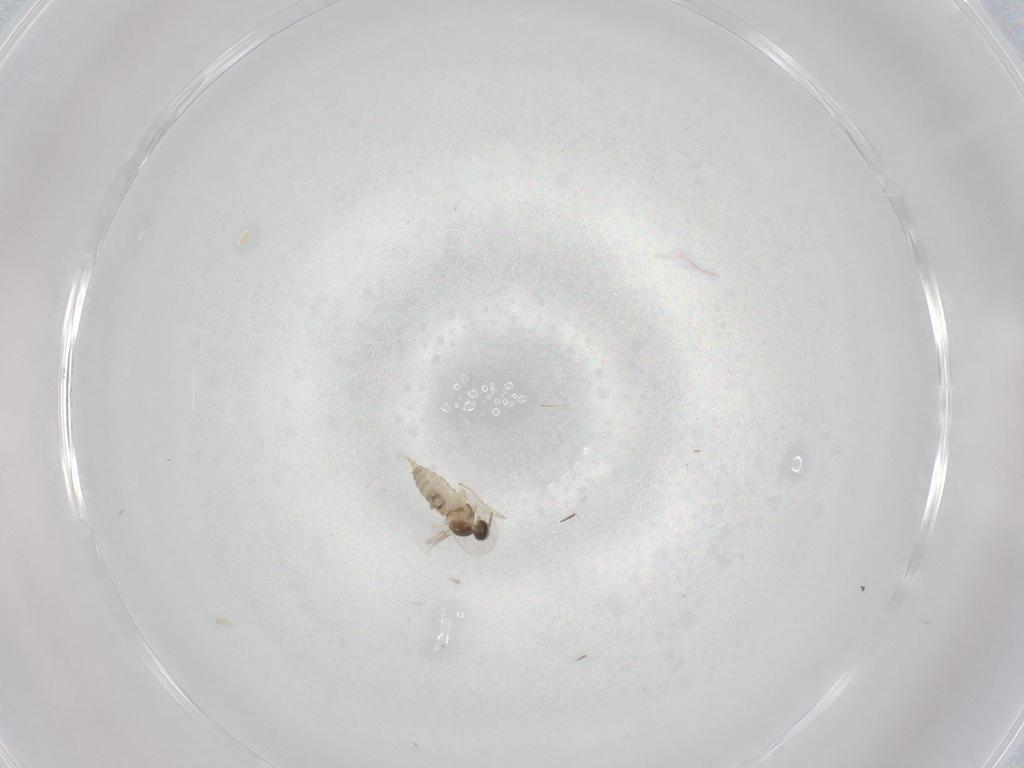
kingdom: Animalia
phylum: Arthropoda
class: Insecta
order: Diptera
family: Cecidomyiidae
